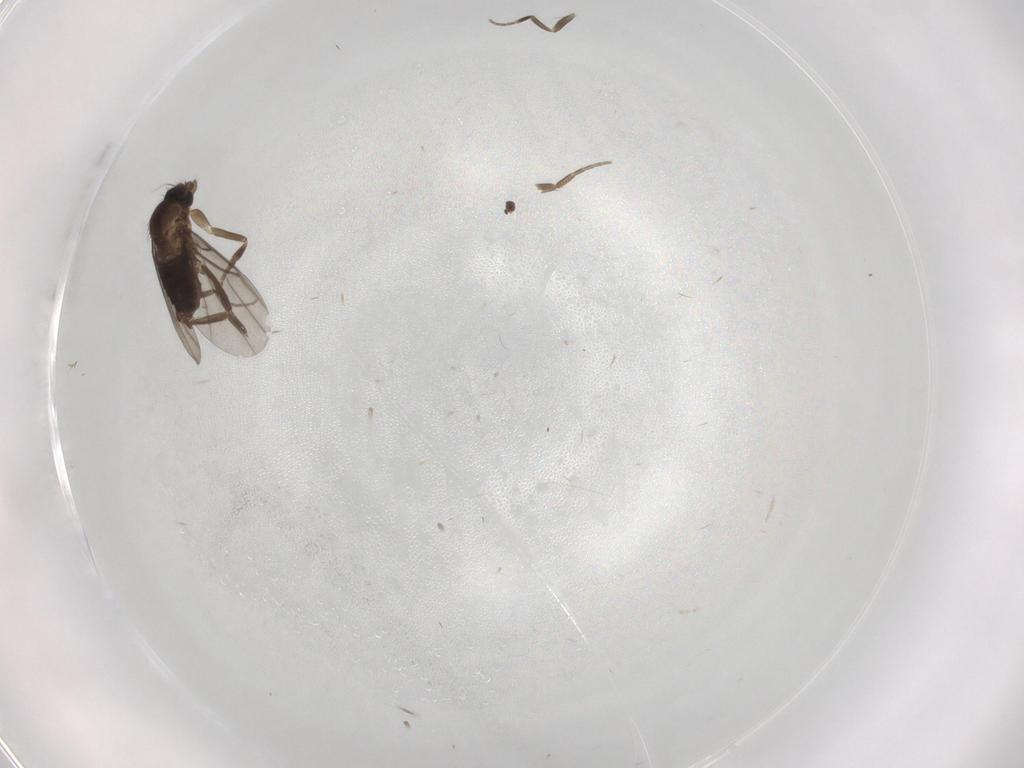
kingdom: Animalia
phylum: Arthropoda
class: Insecta
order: Diptera
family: Phoridae
